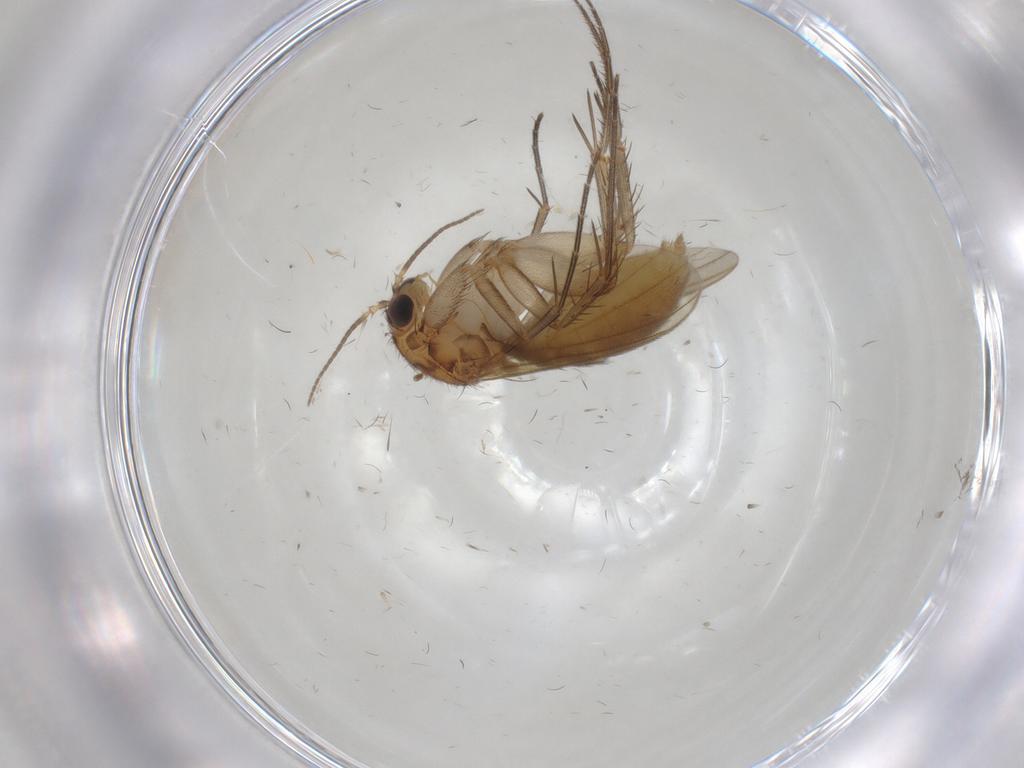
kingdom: Animalia
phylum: Arthropoda
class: Insecta
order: Diptera
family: Mycetophilidae
